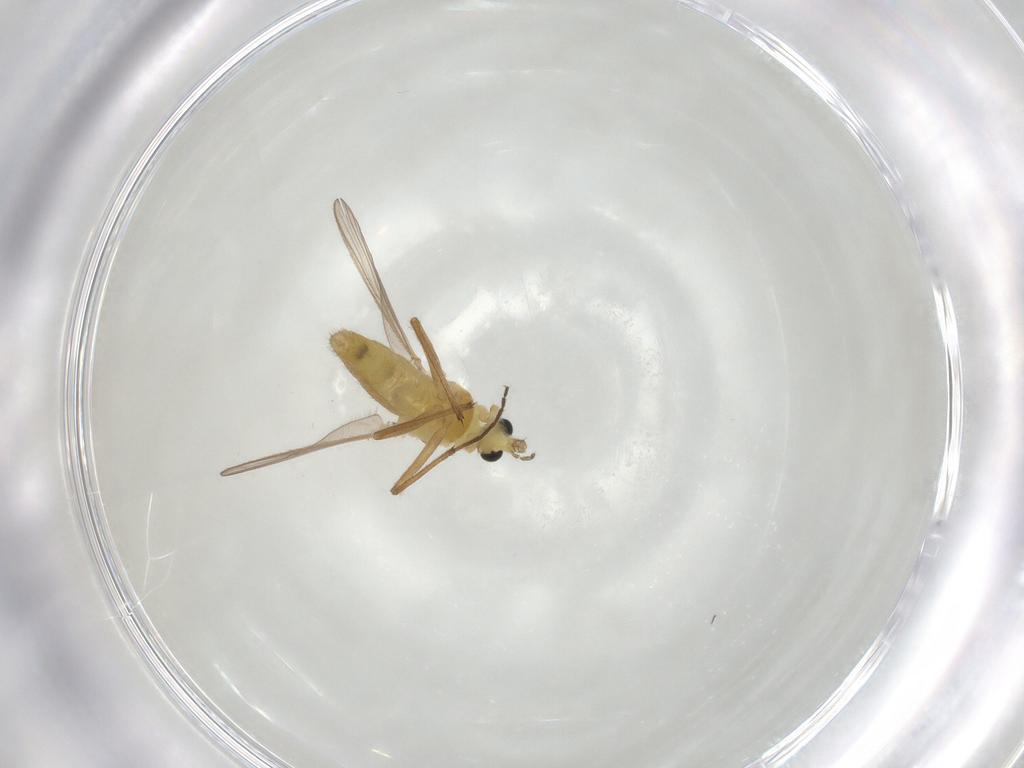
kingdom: Animalia
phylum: Arthropoda
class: Insecta
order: Diptera
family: Chironomidae
